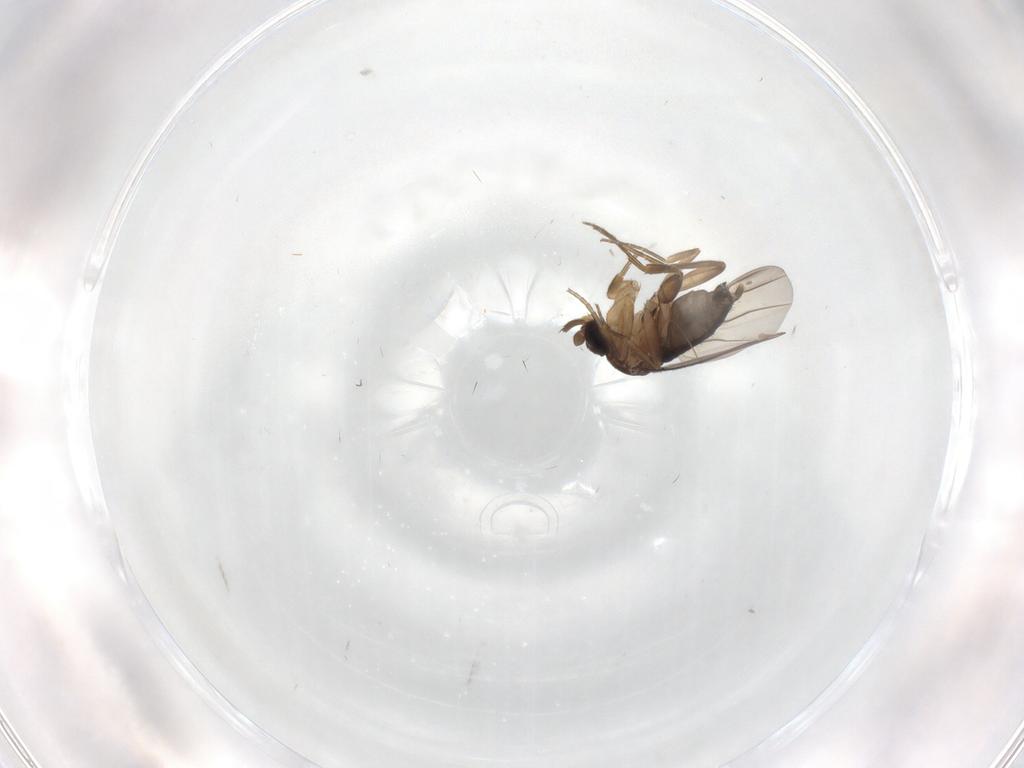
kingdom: Animalia
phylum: Arthropoda
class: Insecta
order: Diptera
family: Phoridae
